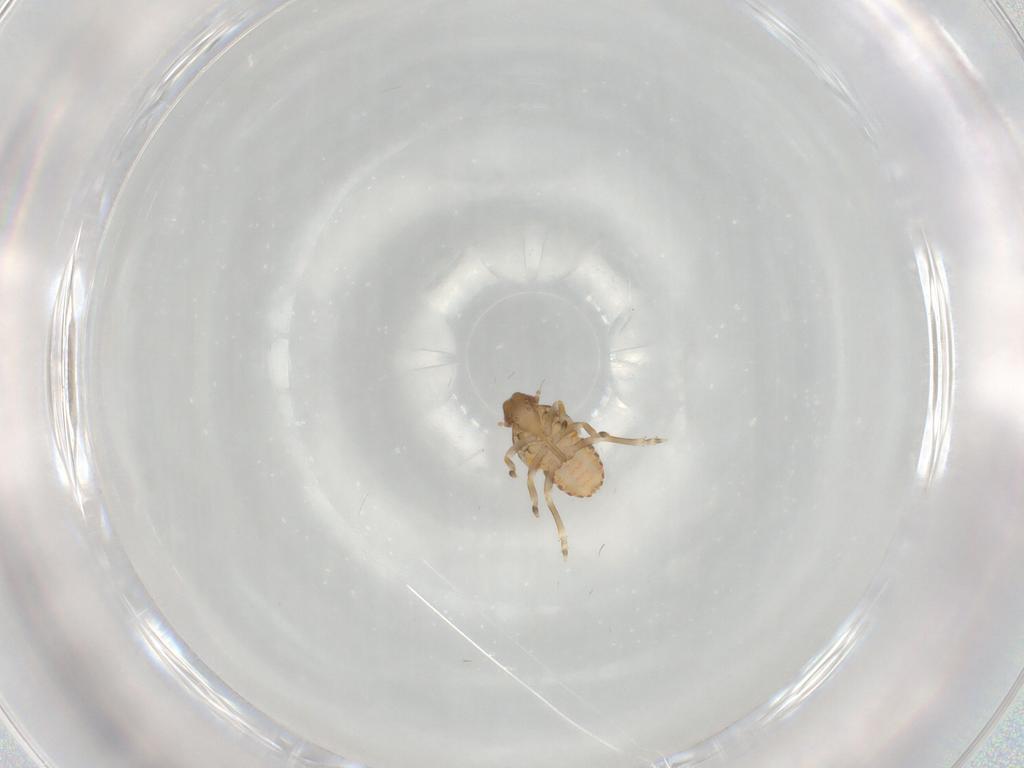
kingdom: Animalia
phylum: Arthropoda
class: Insecta
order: Hemiptera
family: Flatidae
